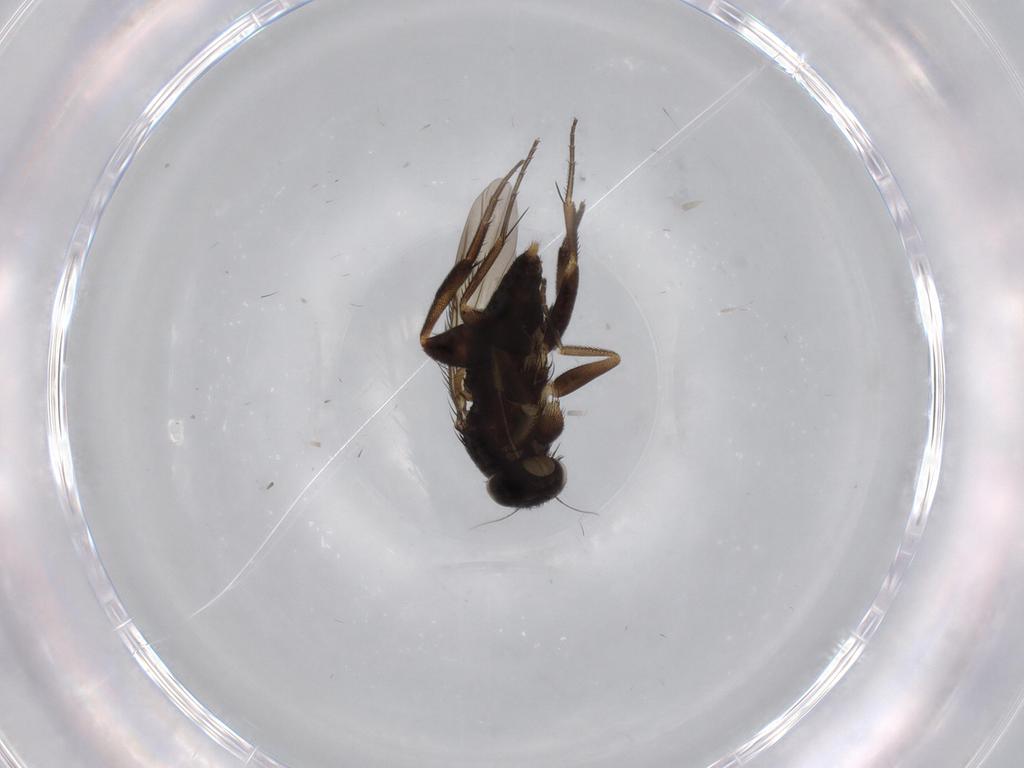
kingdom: Animalia
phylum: Arthropoda
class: Insecta
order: Diptera
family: Phoridae
